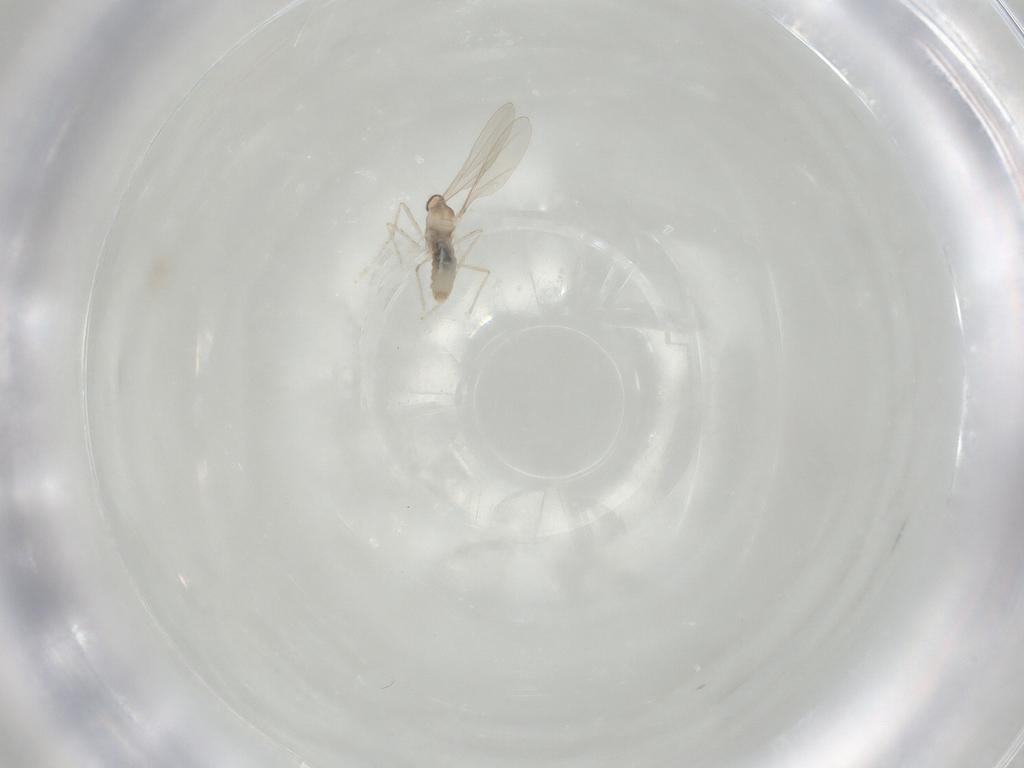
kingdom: Animalia
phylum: Arthropoda
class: Insecta
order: Diptera
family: Cecidomyiidae
